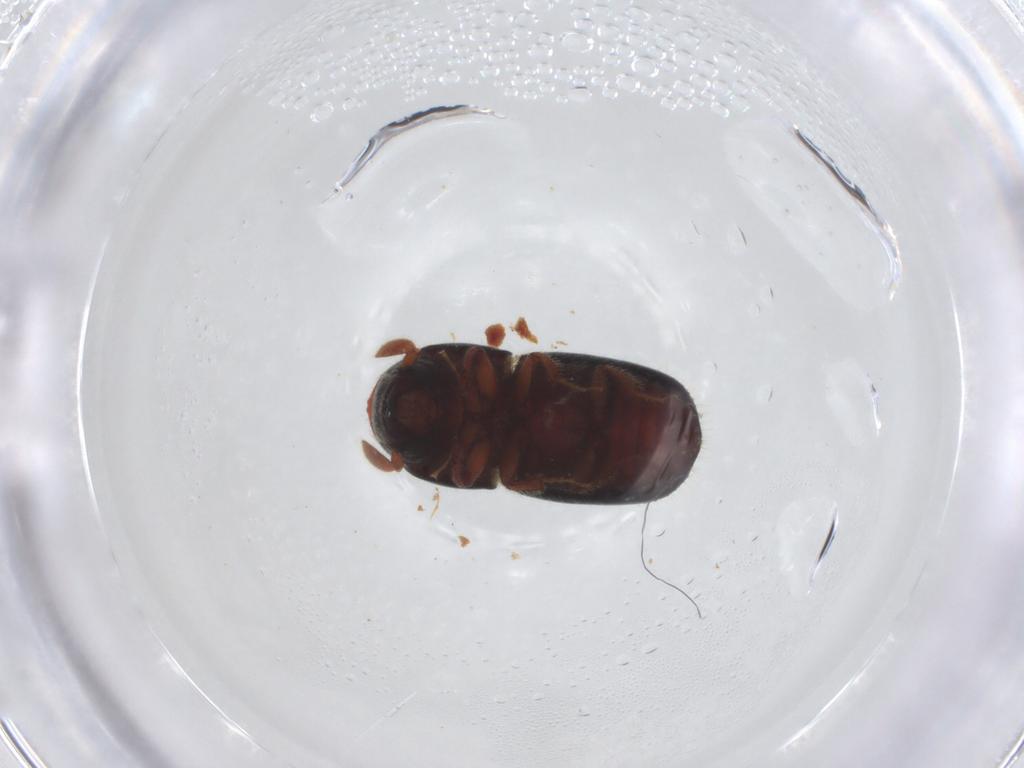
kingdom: Animalia
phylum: Arthropoda
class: Insecta
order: Coleoptera
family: Curculionidae
